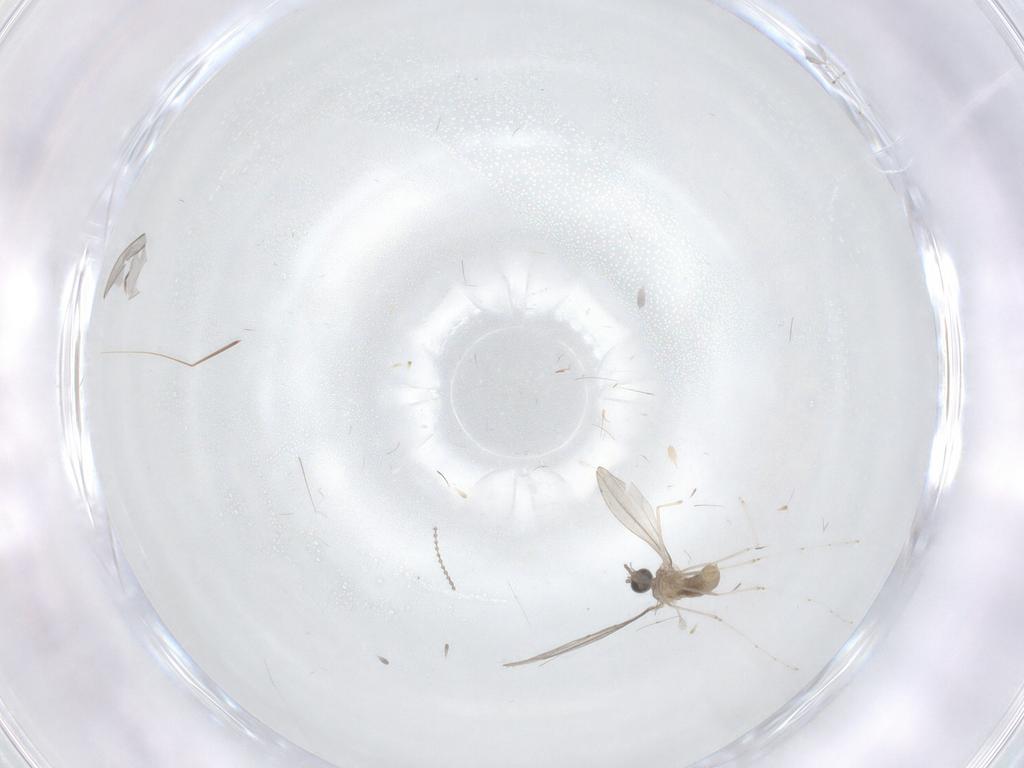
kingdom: Animalia
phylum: Arthropoda
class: Insecta
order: Diptera
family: Cecidomyiidae
